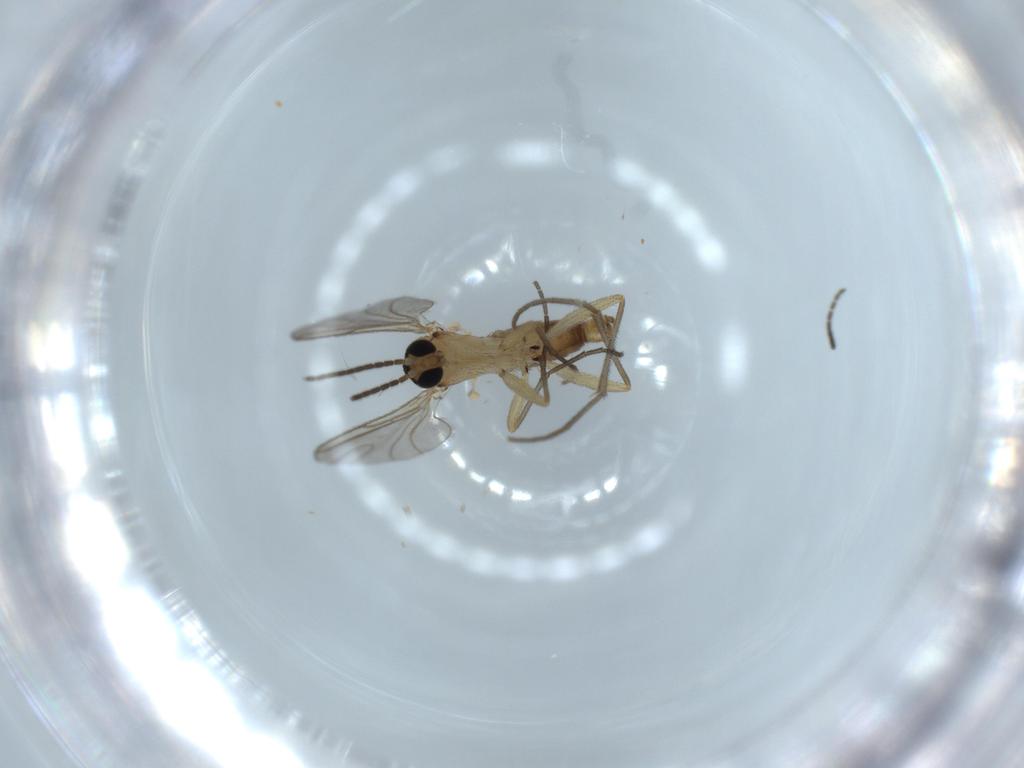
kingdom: Animalia
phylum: Arthropoda
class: Insecta
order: Diptera
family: Sciaridae
